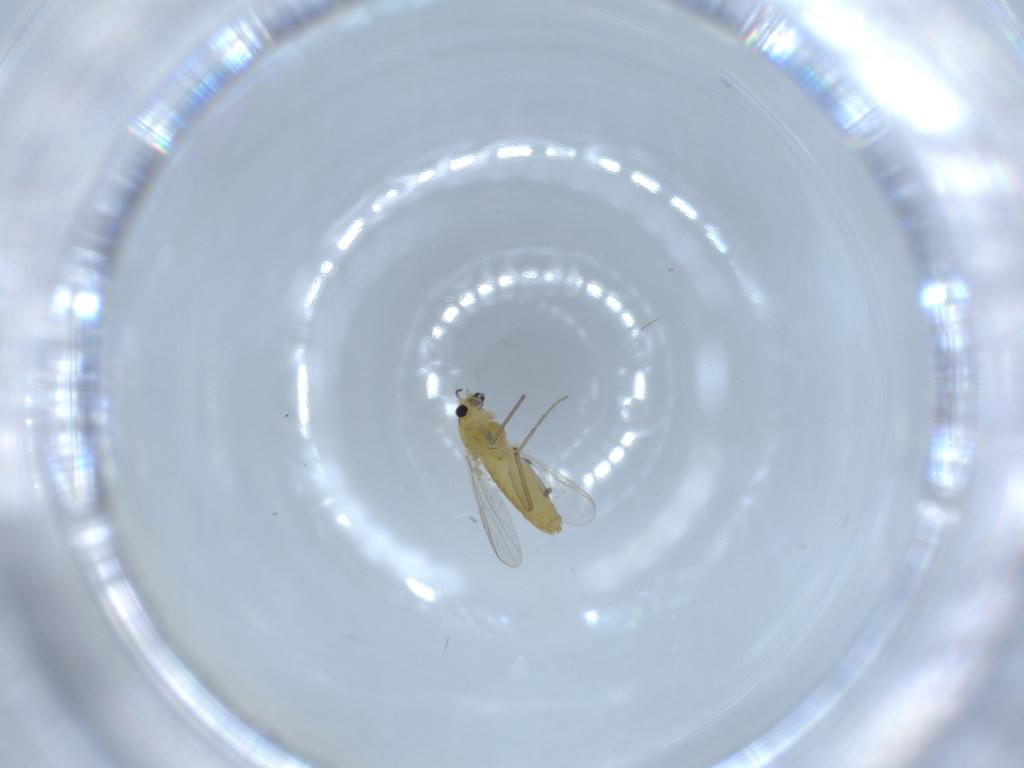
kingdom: Animalia
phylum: Arthropoda
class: Insecta
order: Diptera
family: Chironomidae
